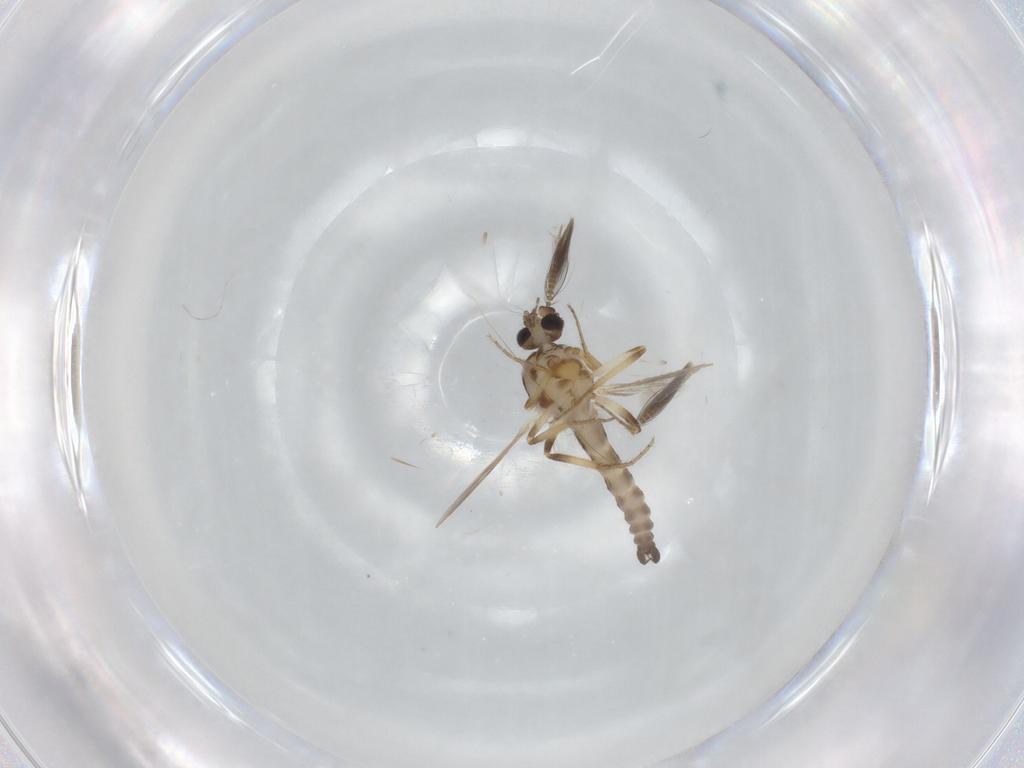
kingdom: Animalia
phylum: Arthropoda
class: Insecta
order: Diptera
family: Ceratopogonidae
